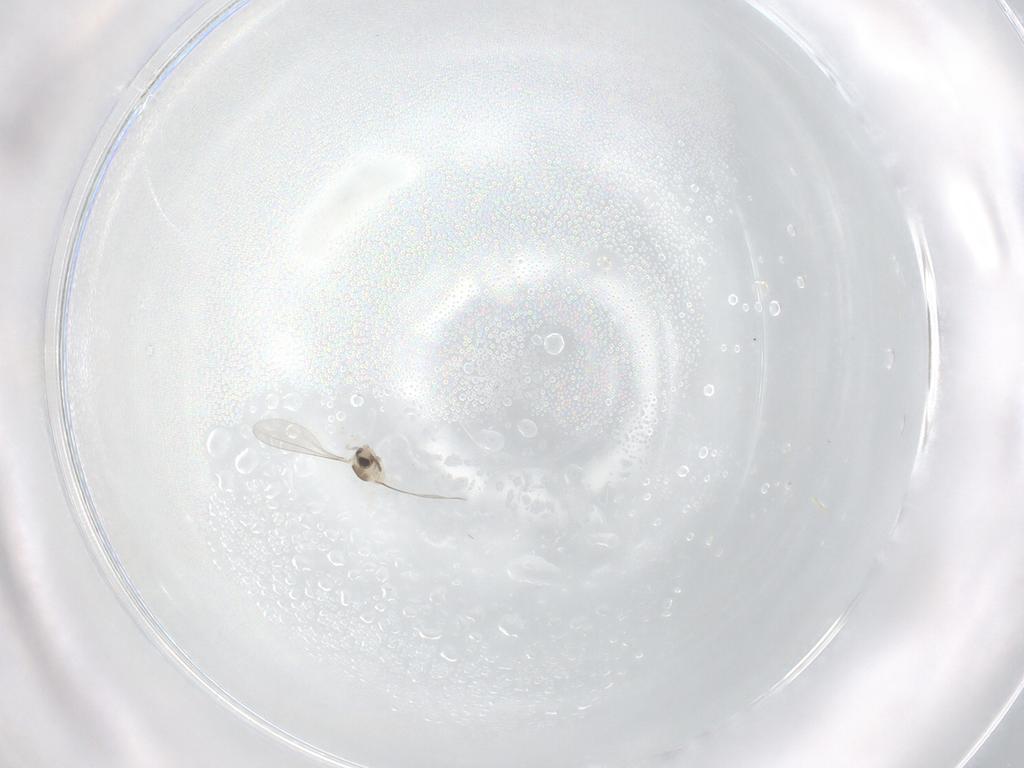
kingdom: Animalia
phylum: Arthropoda
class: Insecta
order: Diptera
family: Cecidomyiidae
